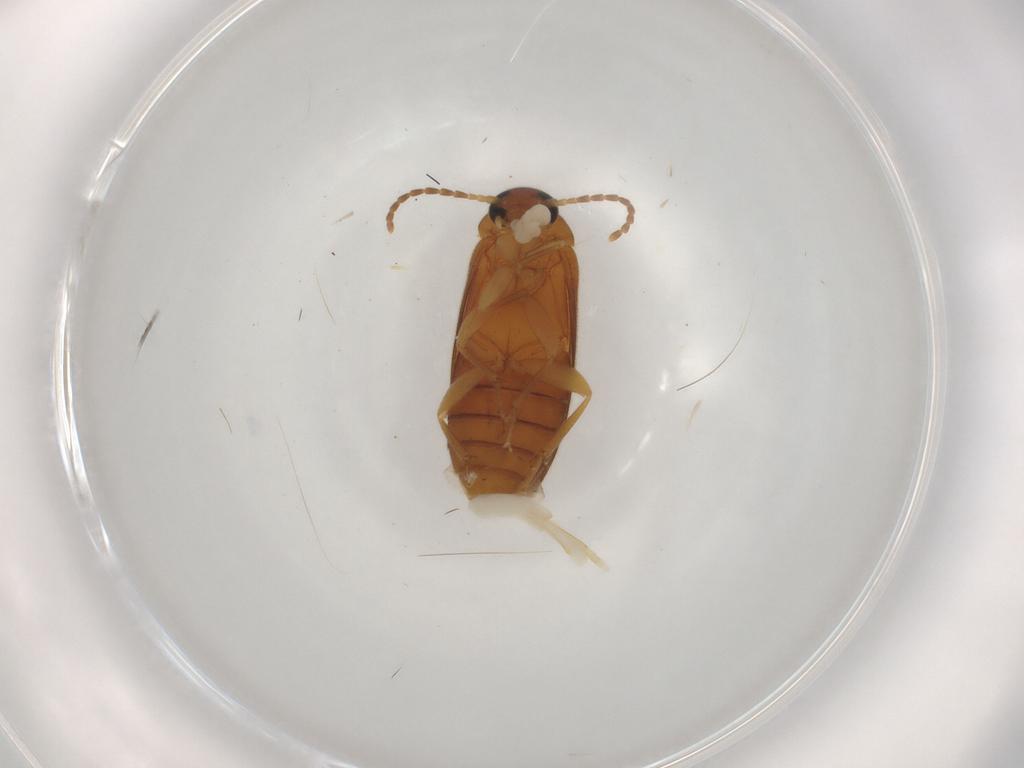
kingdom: Animalia
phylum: Arthropoda
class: Insecta
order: Coleoptera
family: Scraptiidae
